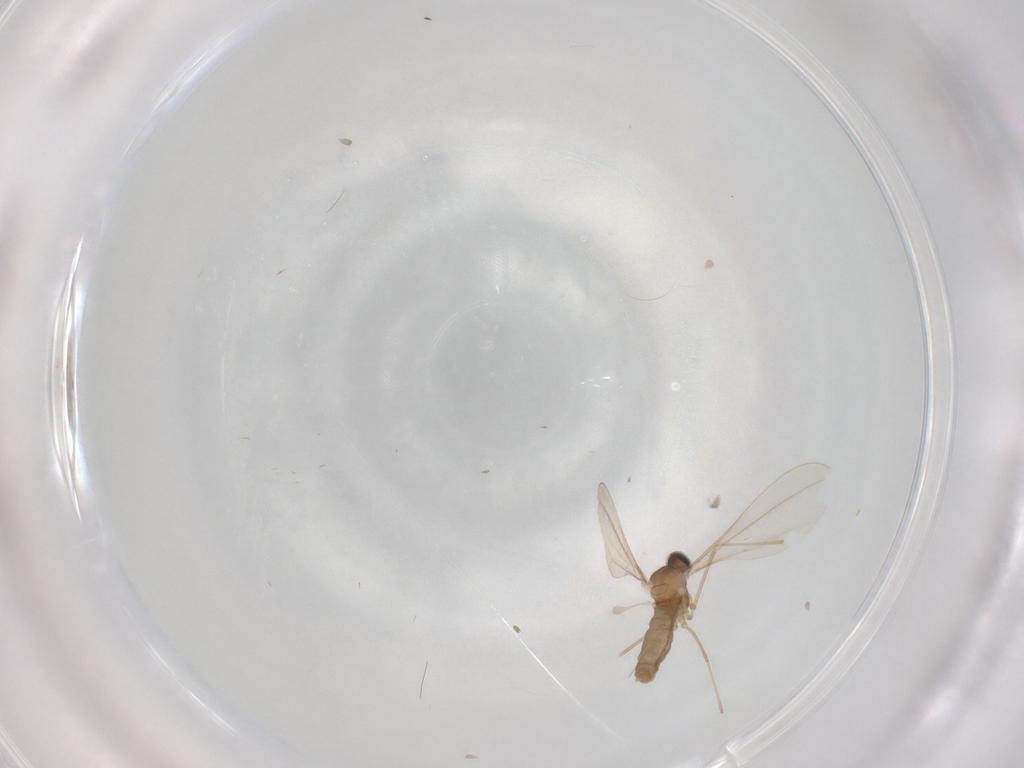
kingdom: Animalia
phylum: Arthropoda
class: Insecta
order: Diptera
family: Cecidomyiidae
